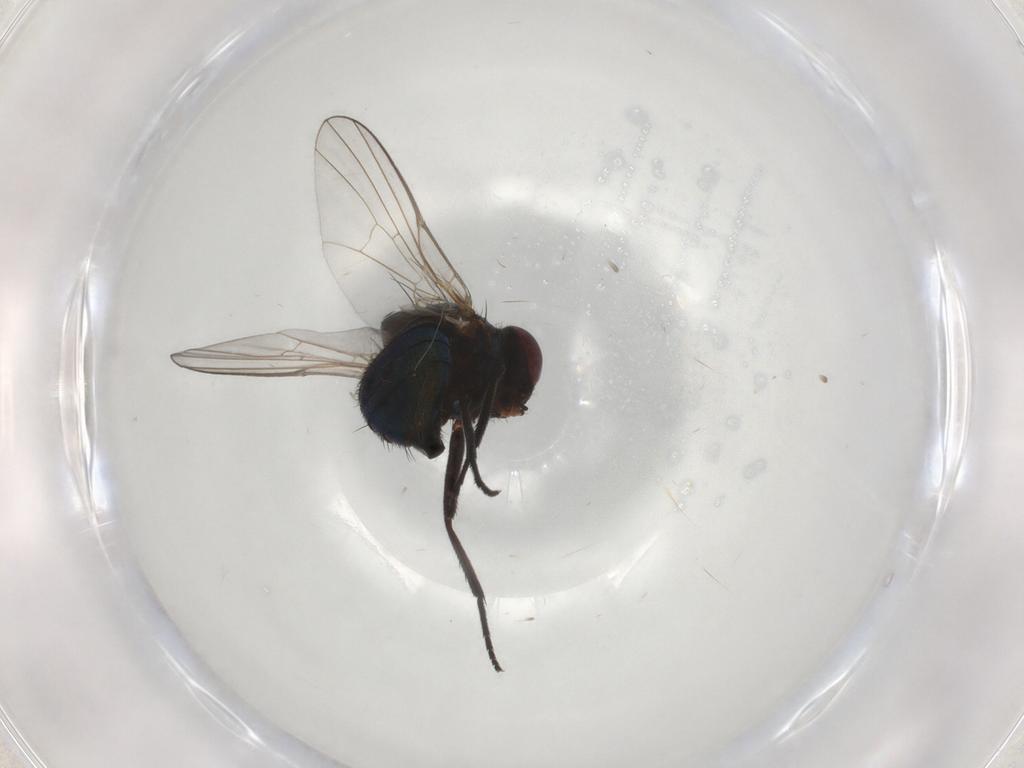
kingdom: Animalia
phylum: Arthropoda
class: Insecta
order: Diptera
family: Agromyzidae
